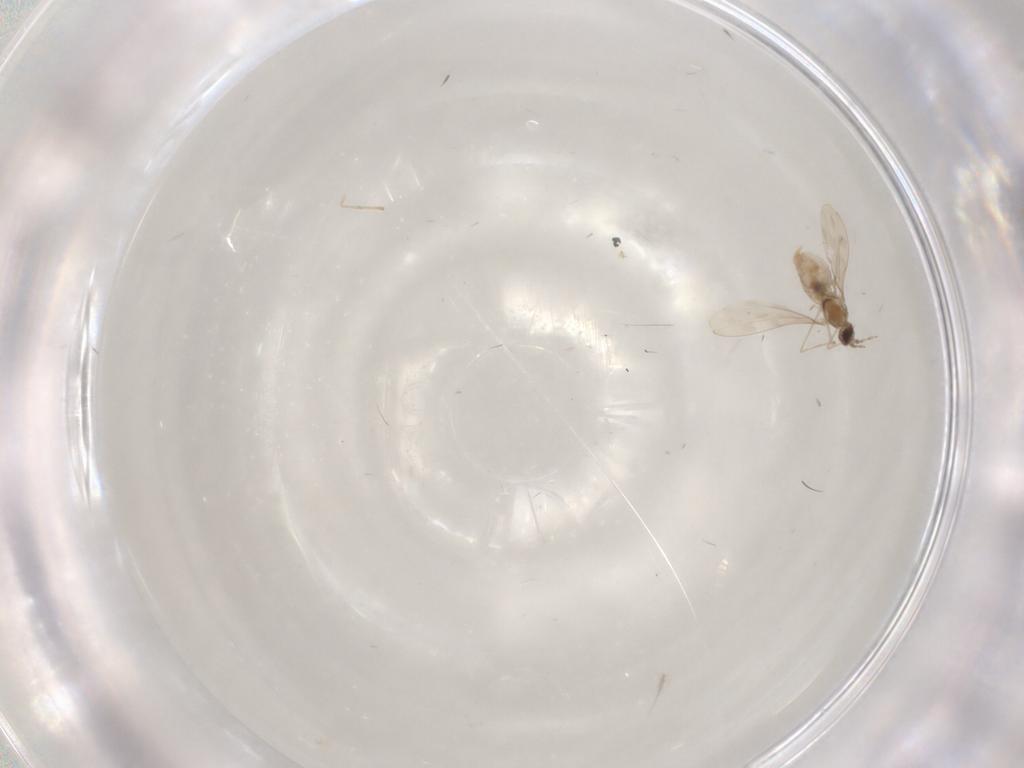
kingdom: Animalia
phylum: Arthropoda
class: Insecta
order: Diptera
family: Cecidomyiidae
